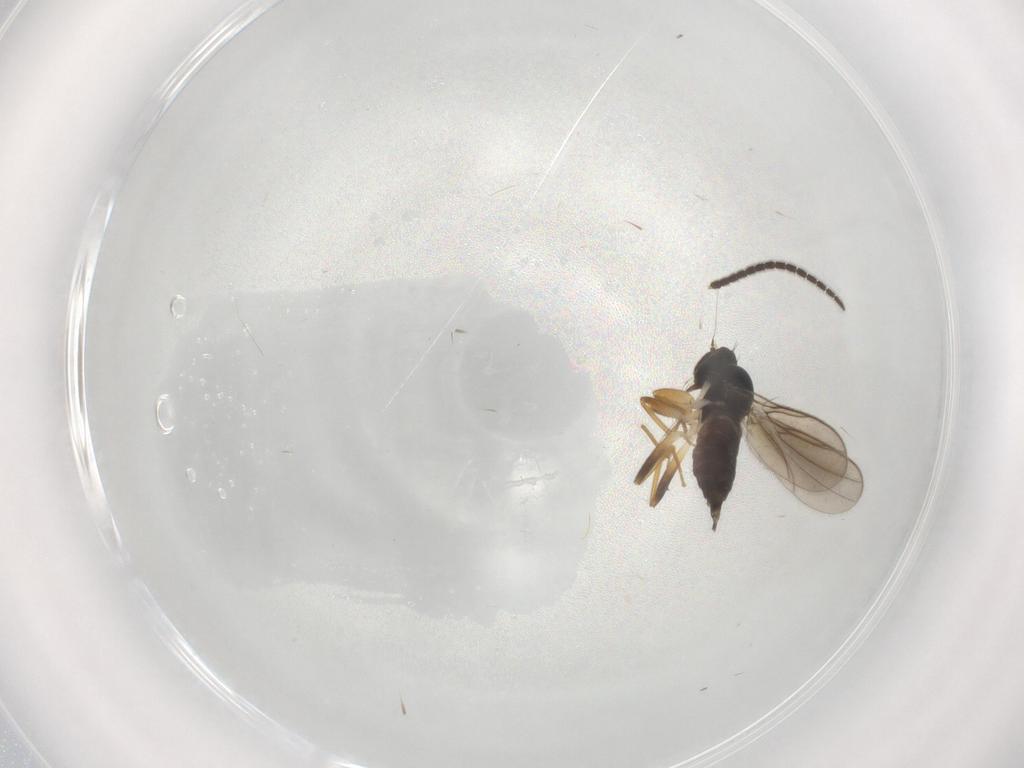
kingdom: Animalia
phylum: Arthropoda
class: Insecta
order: Diptera
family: Hybotidae
